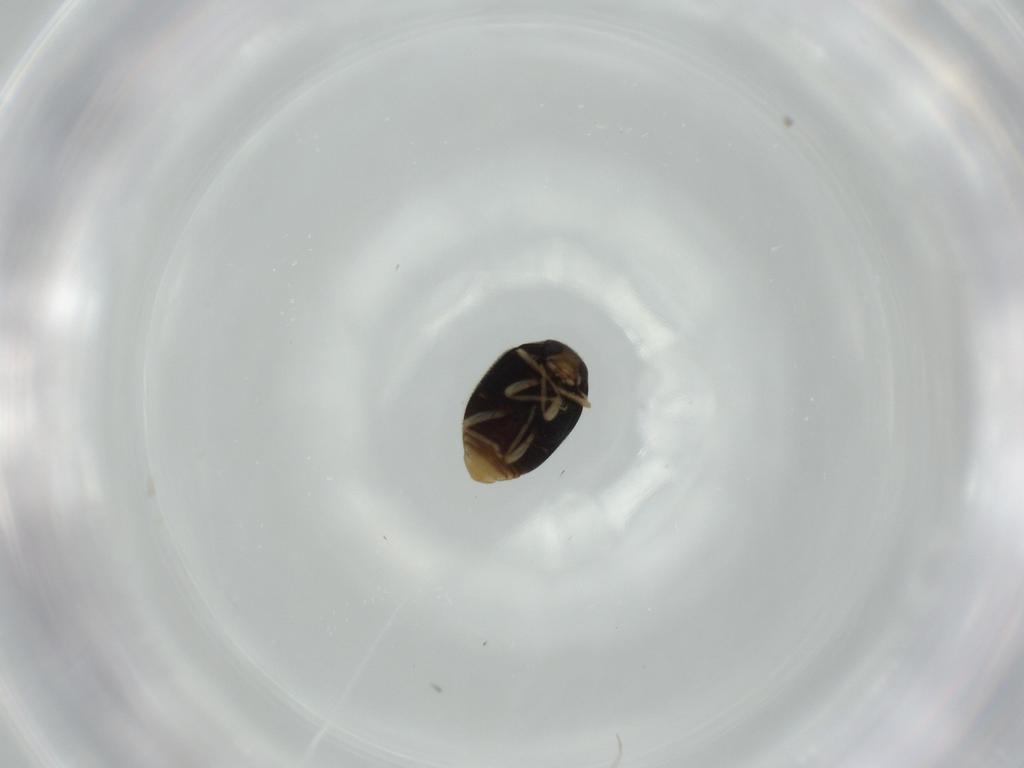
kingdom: Animalia
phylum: Arthropoda
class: Insecta
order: Coleoptera
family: Coccinellidae
